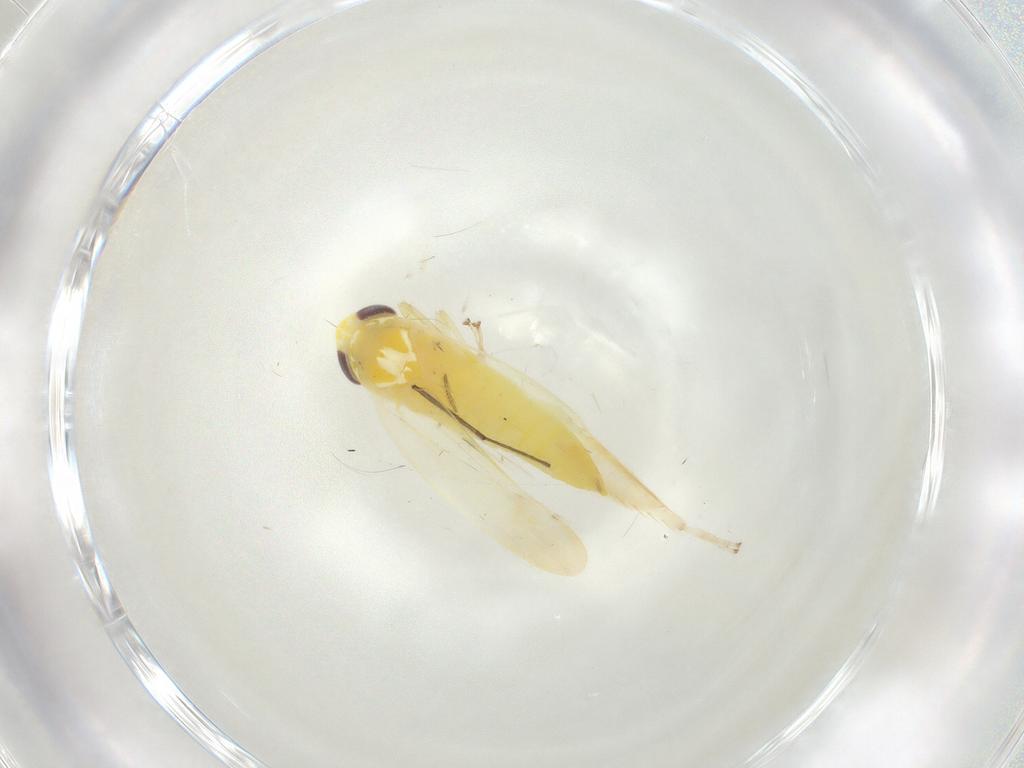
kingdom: Animalia
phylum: Arthropoda
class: Insecta
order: Hemiptera
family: Cicadellidae
